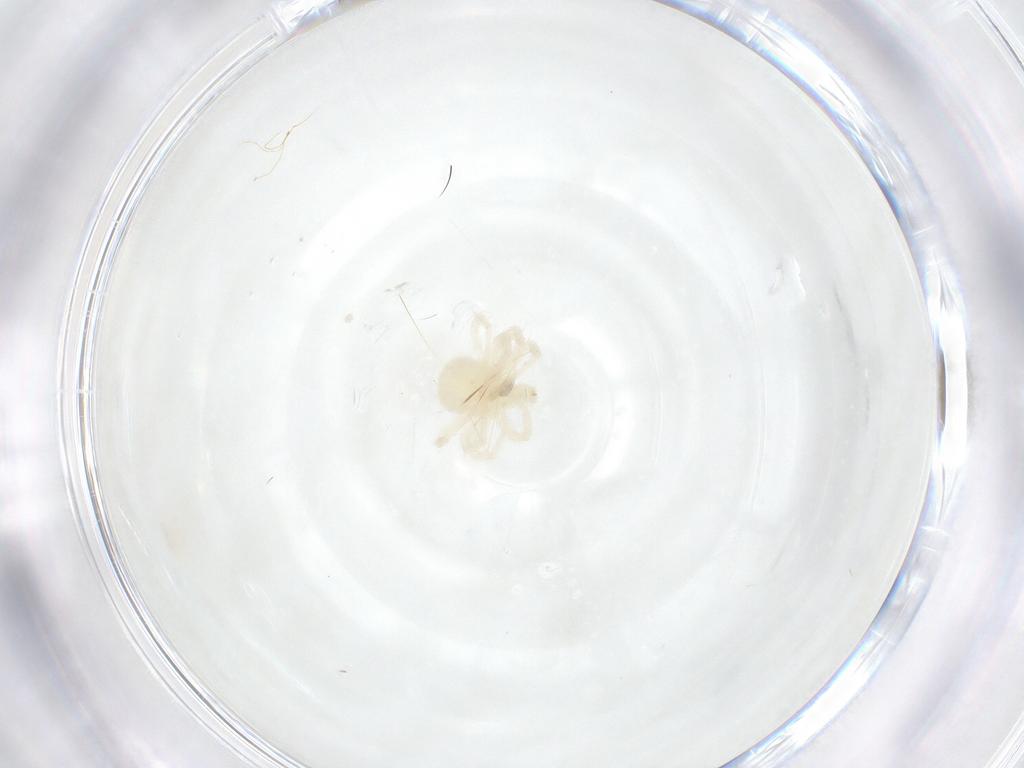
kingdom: Animalia
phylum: Arthropoda
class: Arachnida
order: Trombidiformes
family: Anystidae
